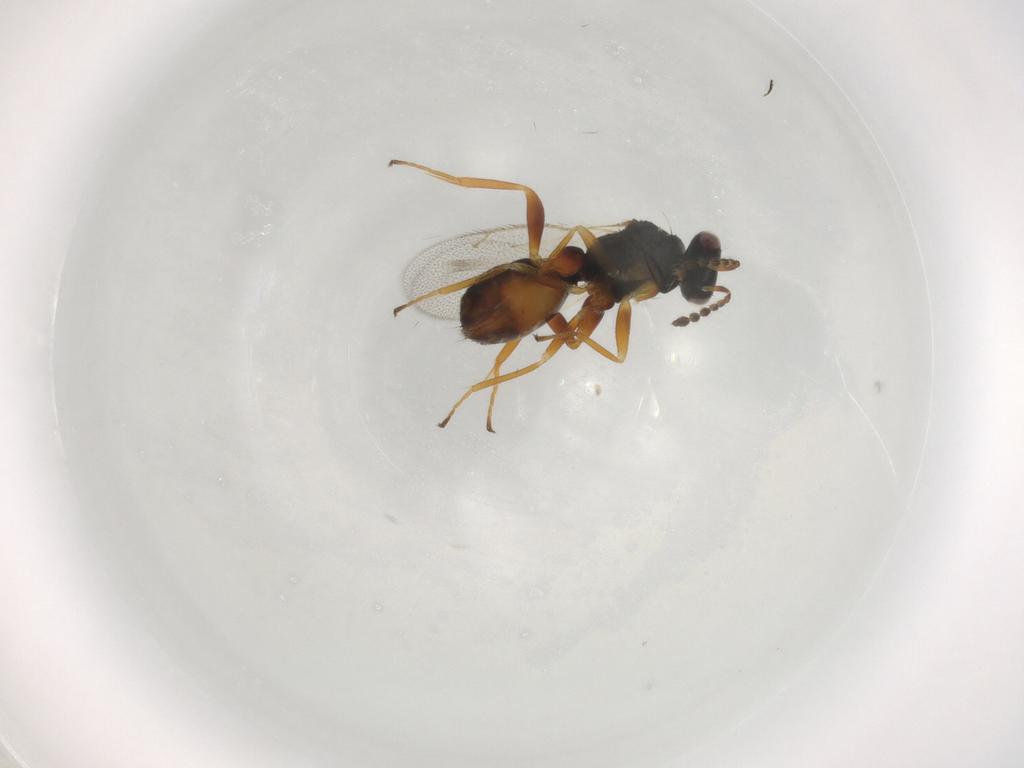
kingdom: Animalia
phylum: Arthropoda
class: Insecta
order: Hymenoptera
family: Eulophidae
